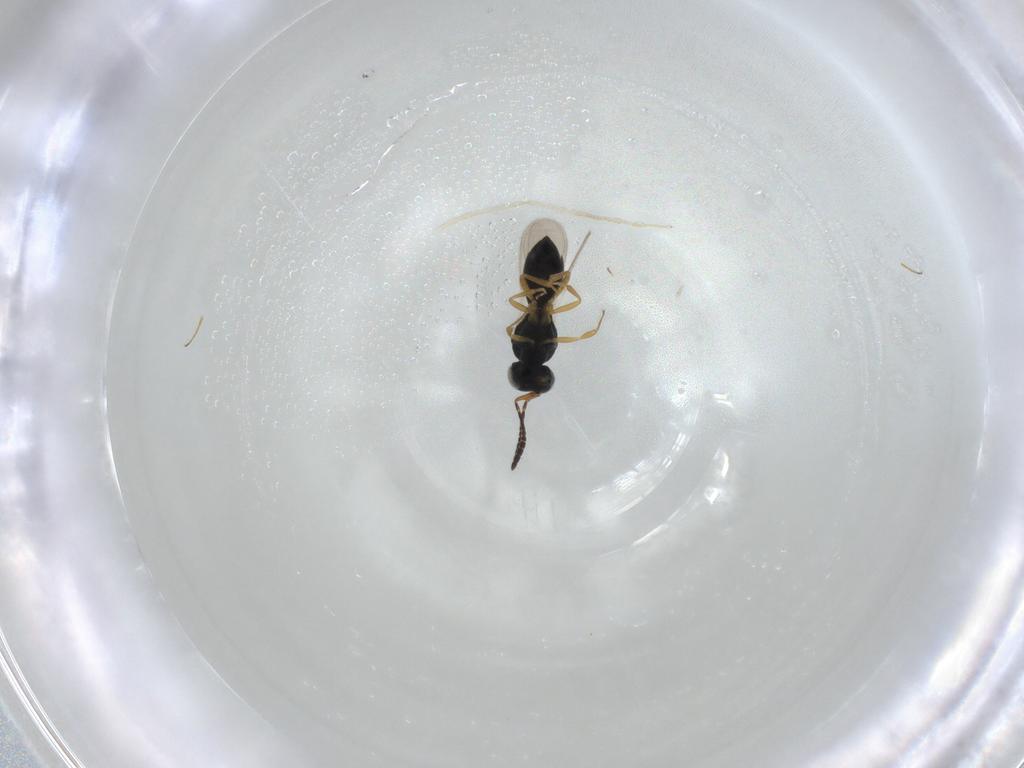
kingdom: Animalia
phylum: Arthropoda
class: Insecta
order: Hymenoptera
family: Scelionidae
